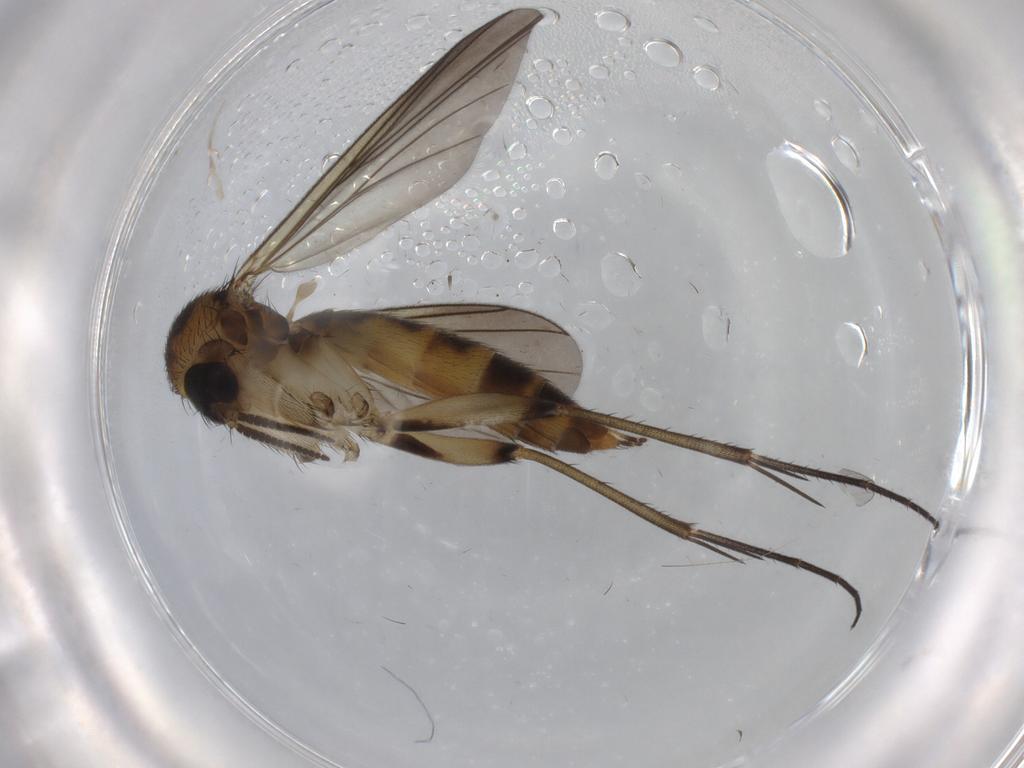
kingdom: Animalia
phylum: Arthropoda
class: Insecta
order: Diptera
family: Mycetophilidae
